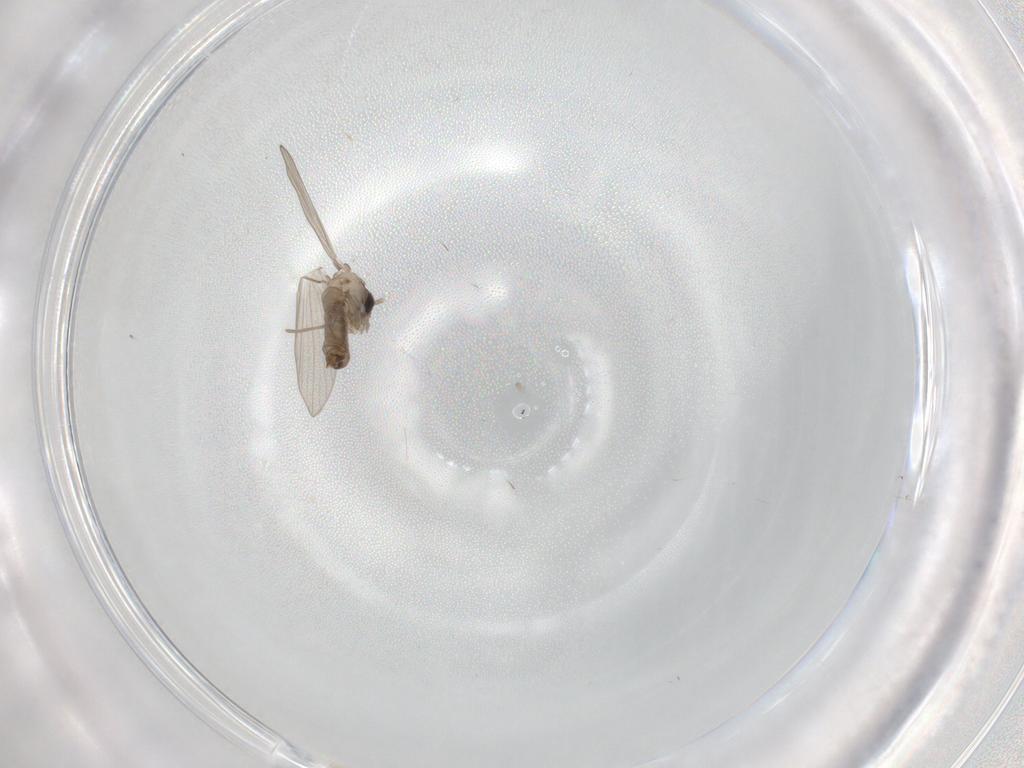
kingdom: Animalia
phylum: Arthropoda
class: Insecta
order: Diptera
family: Psychodidae
